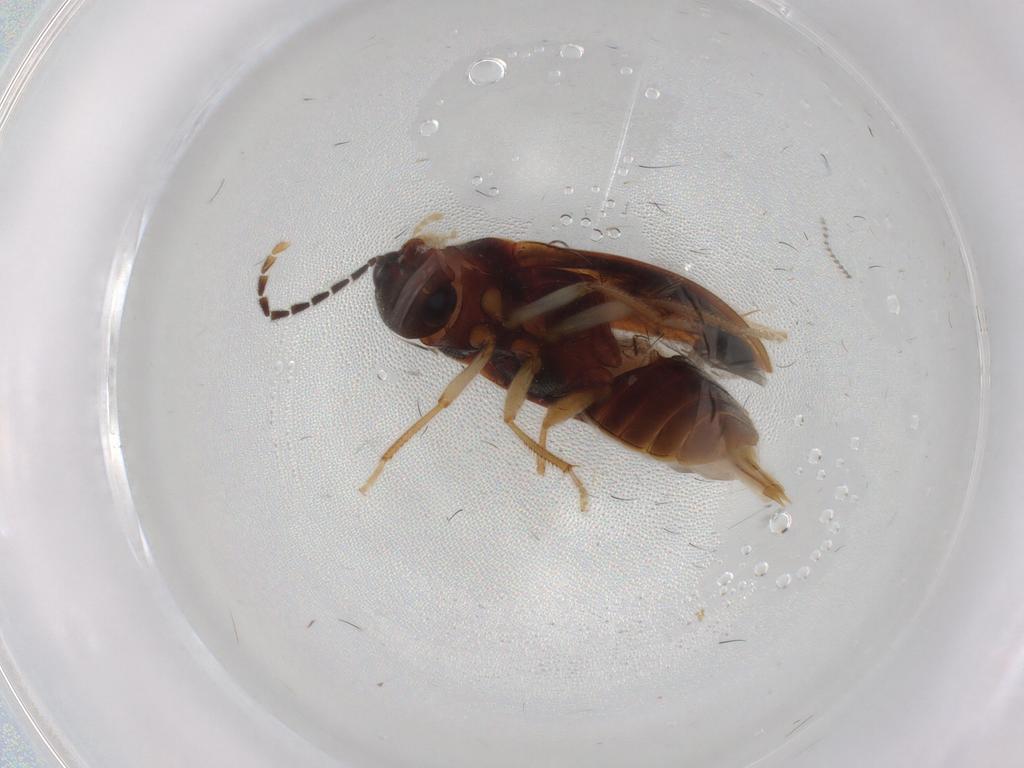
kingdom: Animalia
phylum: Arthropoda
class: Insecta
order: Coleoptera
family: Ptilodactylidae
